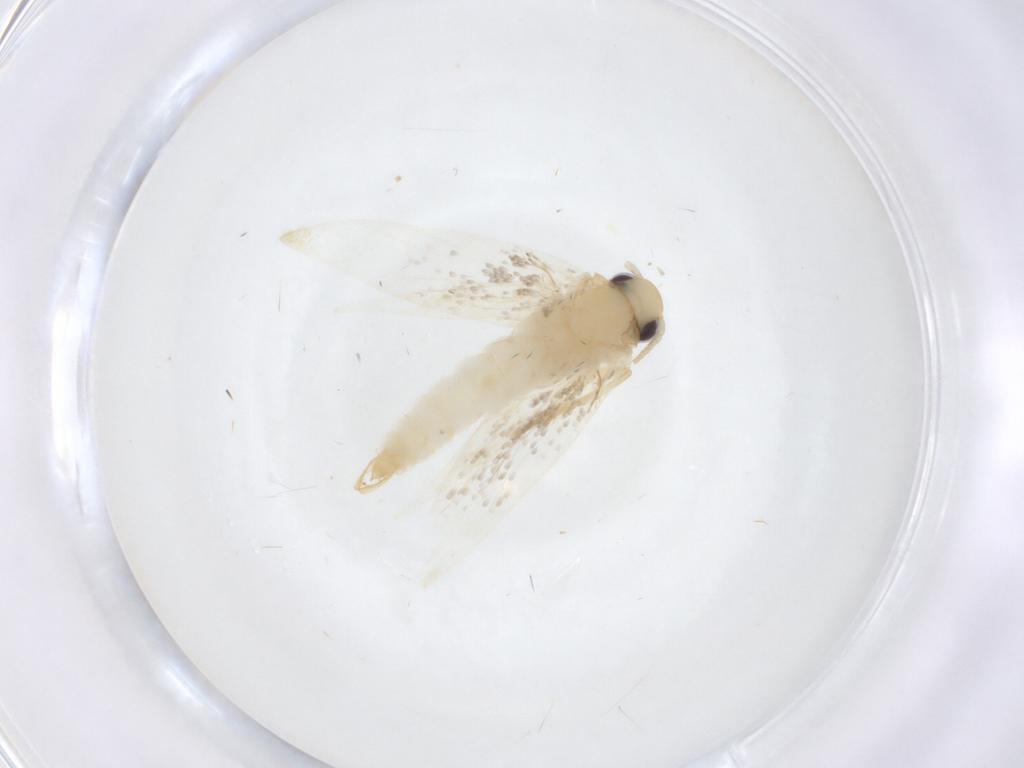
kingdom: Animalia
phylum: Arthropoda
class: Insecta
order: Lepidoptera
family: Erebidae
